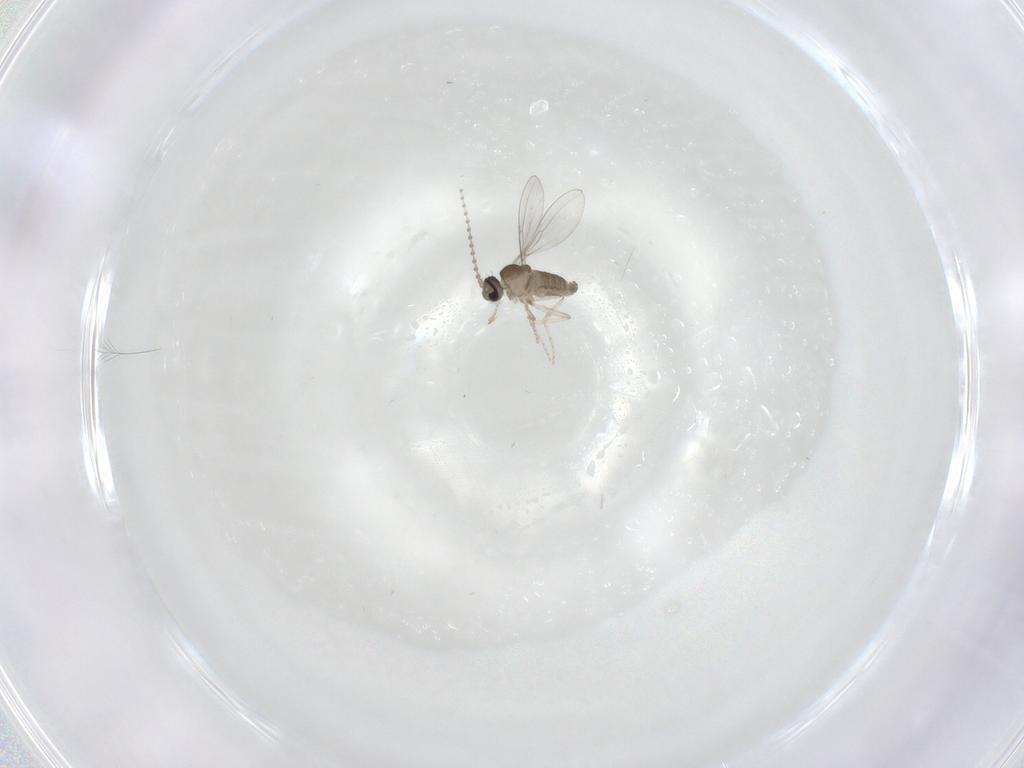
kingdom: Animalia
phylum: Arthropoda
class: Insecta
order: Diptera
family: Cecidomyiidae
